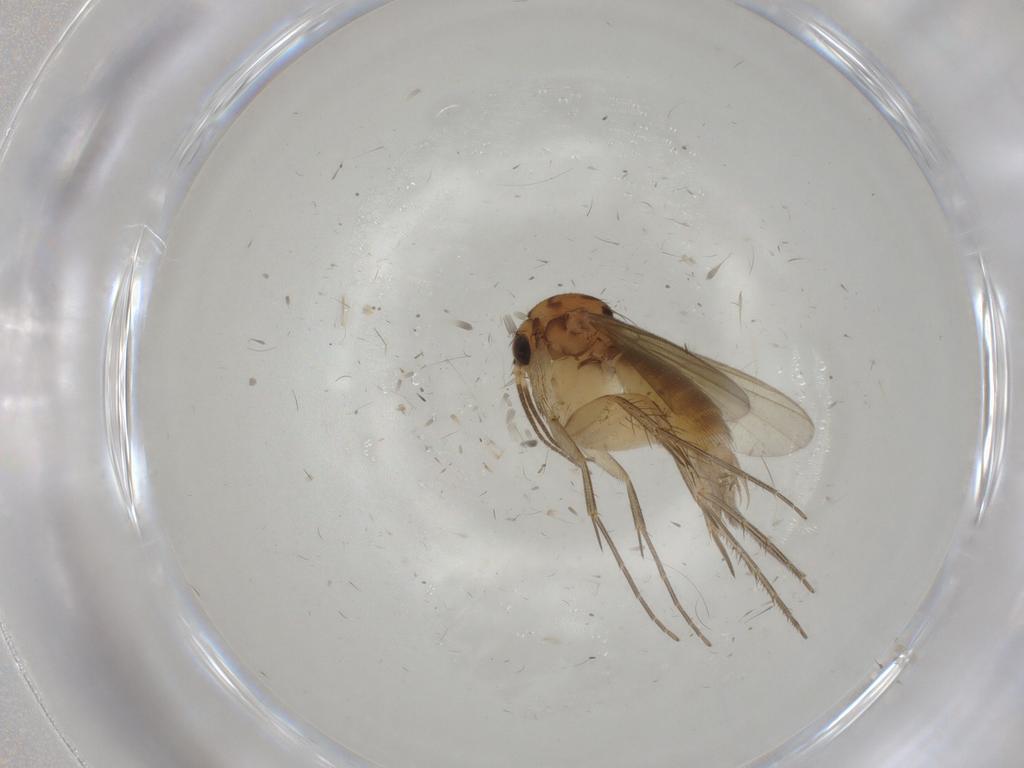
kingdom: Animalia
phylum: Arthropoda
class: Insecta
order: Diptera
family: Mycetophilidae
